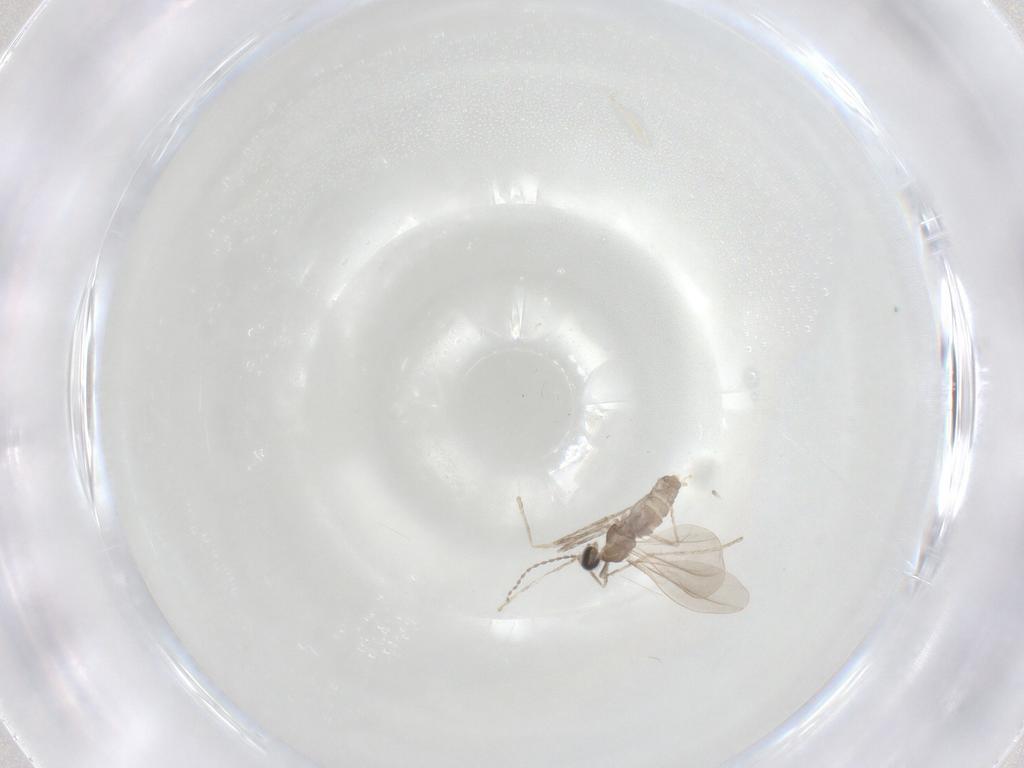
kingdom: Animalia
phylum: Arthropoda
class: Insecta
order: Diptera
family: Cecidomyiidae
